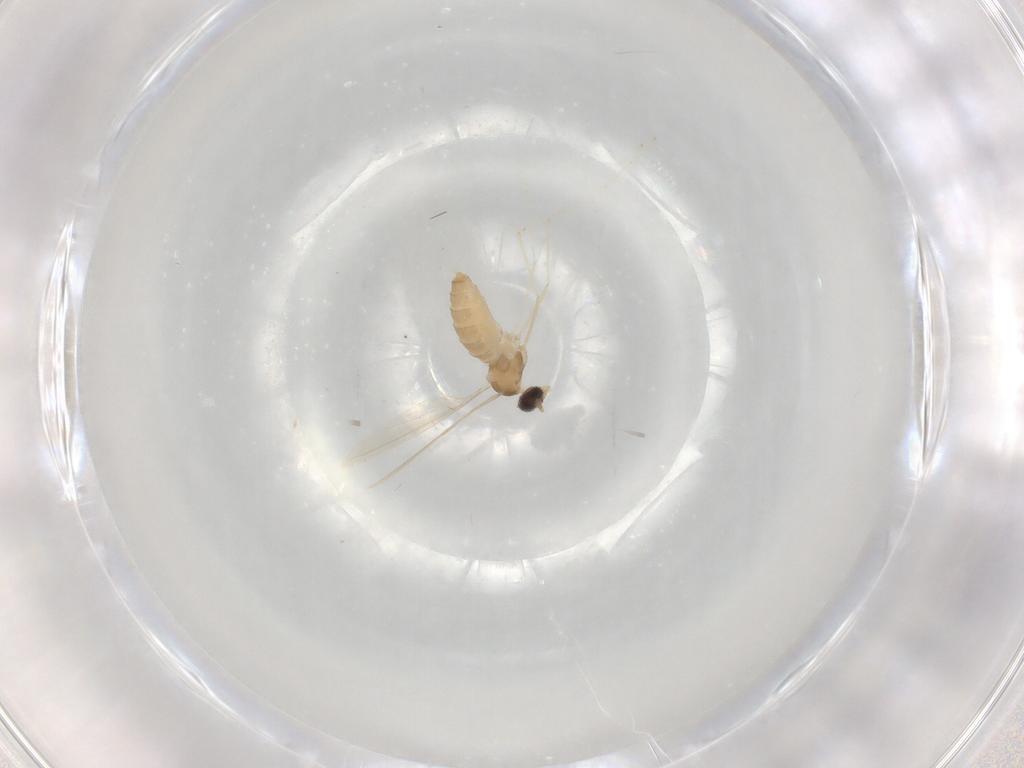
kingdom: Animalia
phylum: Arthropoda
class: Insecta
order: Diptera
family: Cecidomyiidae
